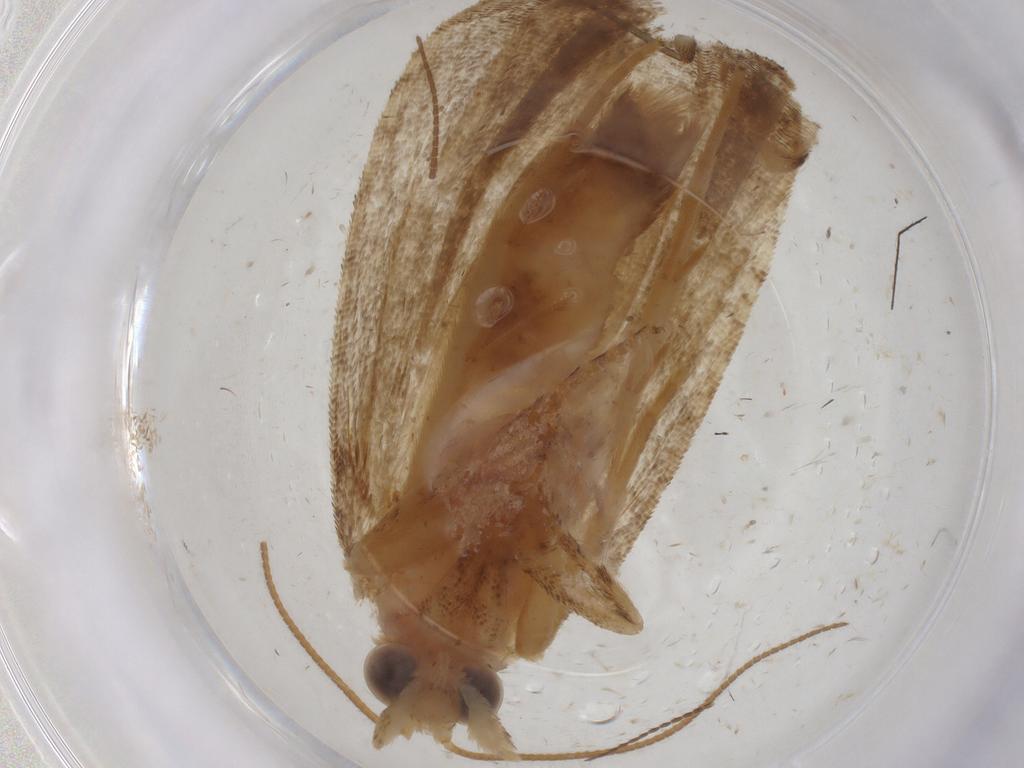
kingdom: Animalia
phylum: Arthropoda
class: Insecta
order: Lepidoptera
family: Tortricidae
